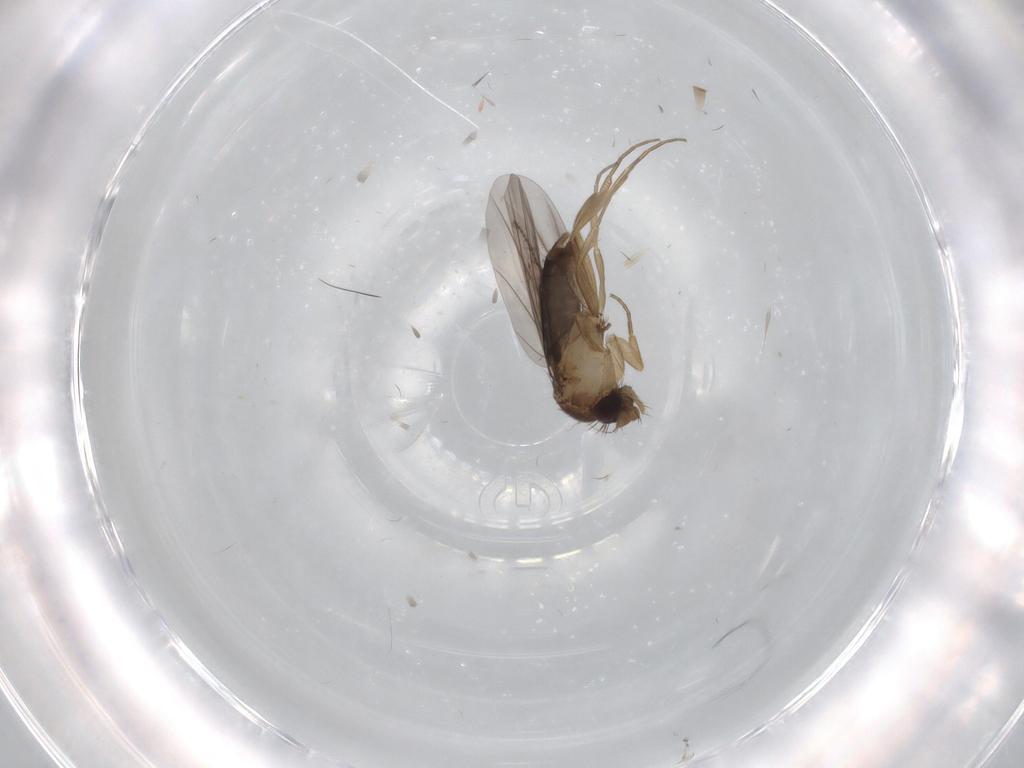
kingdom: Animalia
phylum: Arthropoda
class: Insecta
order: Diptera
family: Phoridae
